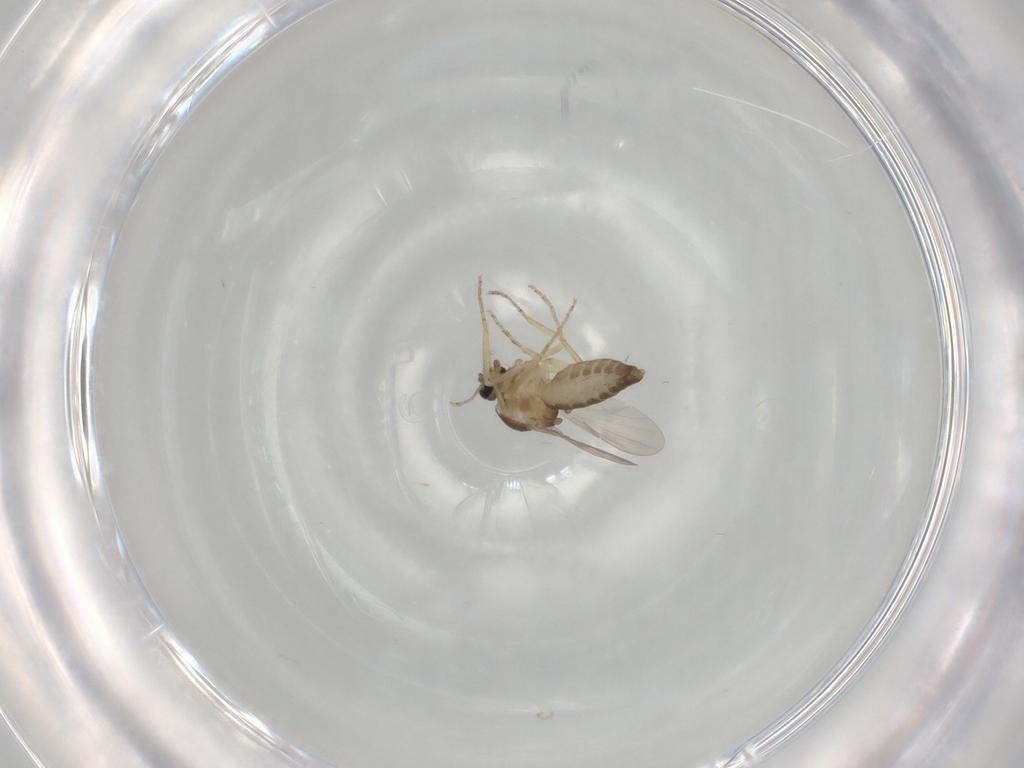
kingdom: Animalia
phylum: Arthropoda
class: Insecta
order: Diptera
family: Ceratopogonidae
